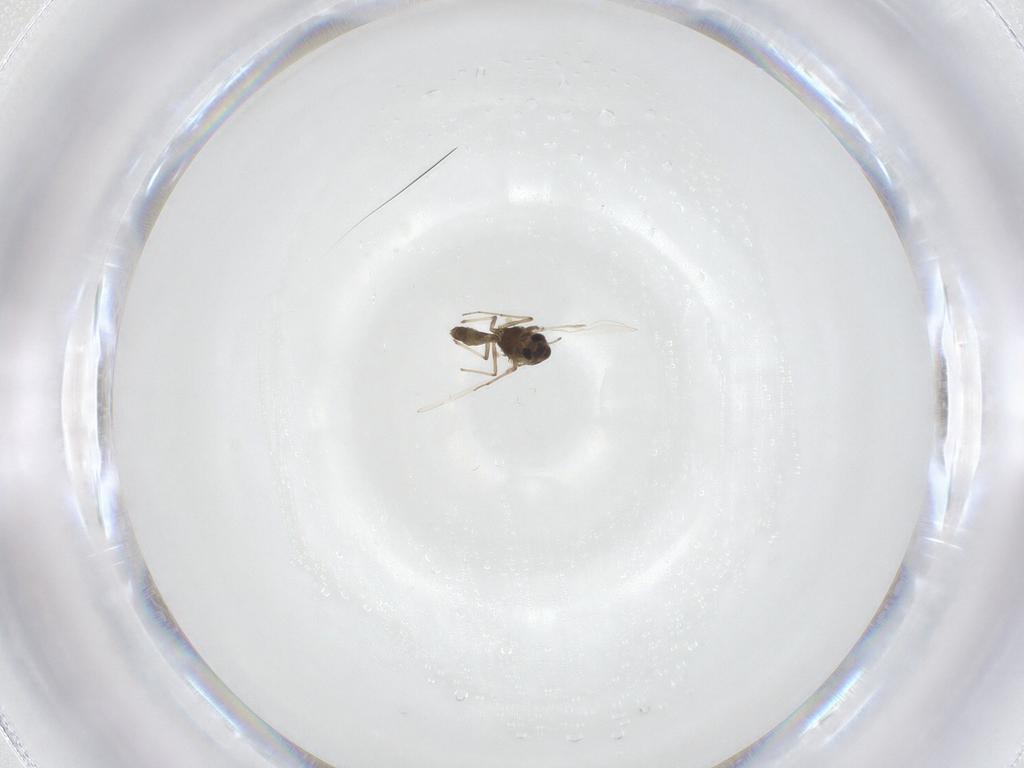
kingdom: Animalia
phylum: Arthropoda
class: Insecta
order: Diptera
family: Chironomidae
